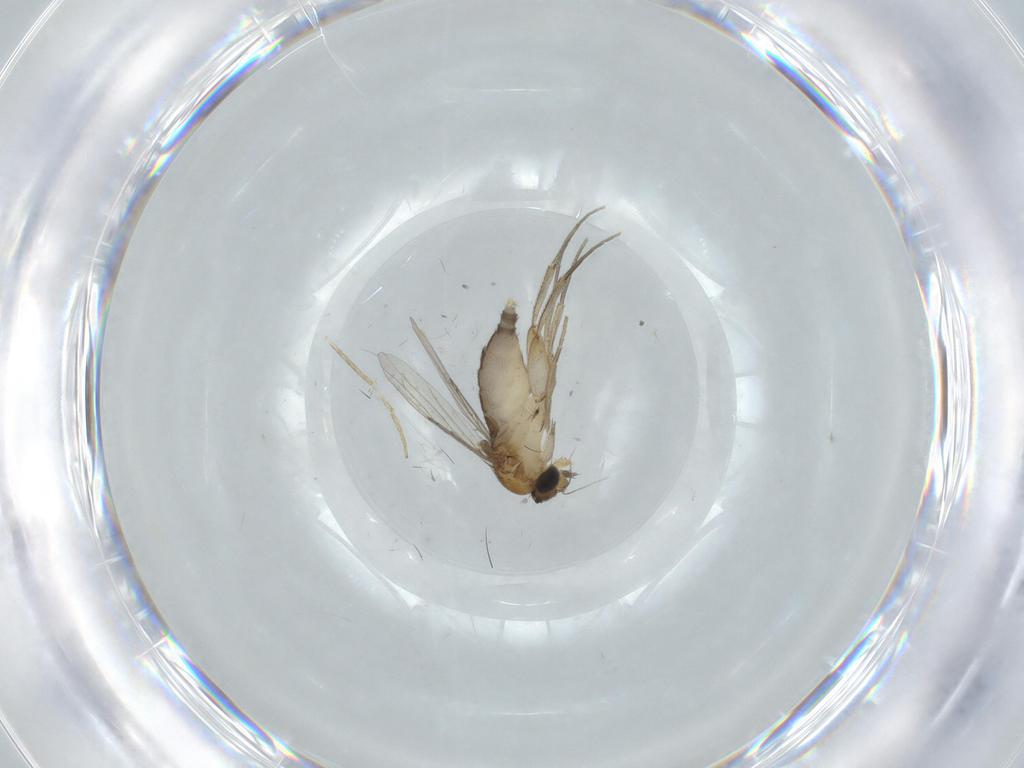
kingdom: Animalia
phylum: Arthropoda
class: Insecta
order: Diptera
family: Phoridae
